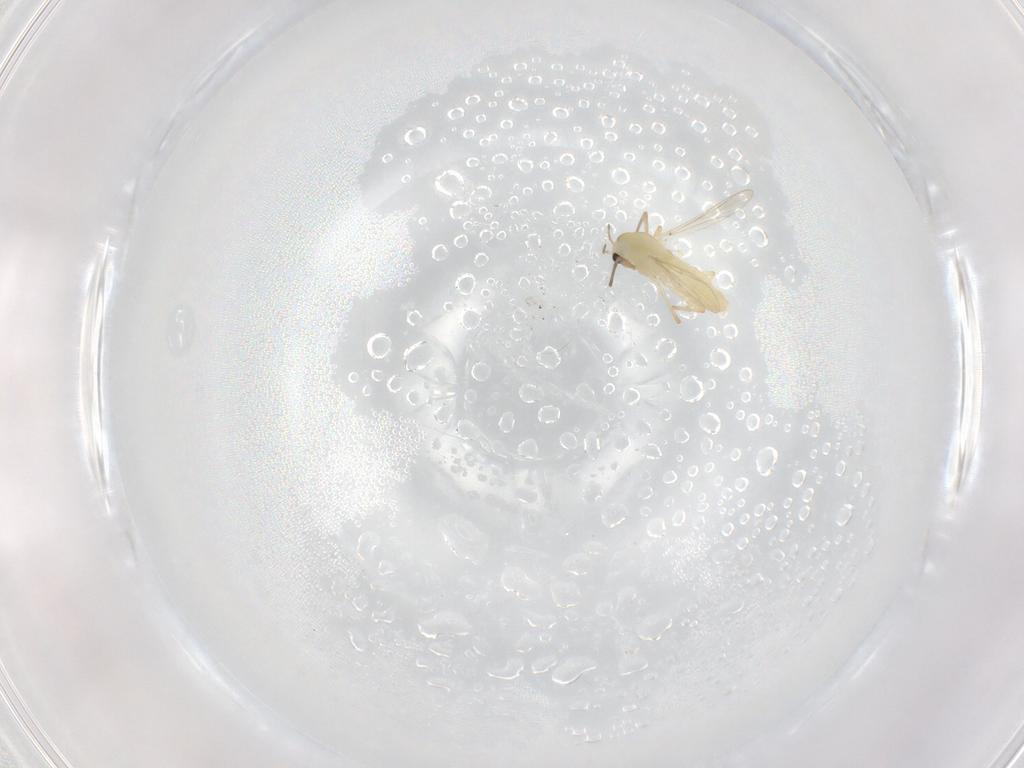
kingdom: Animalia
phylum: Arthropoda
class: Insecta
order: Diptera
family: Chironomidae
